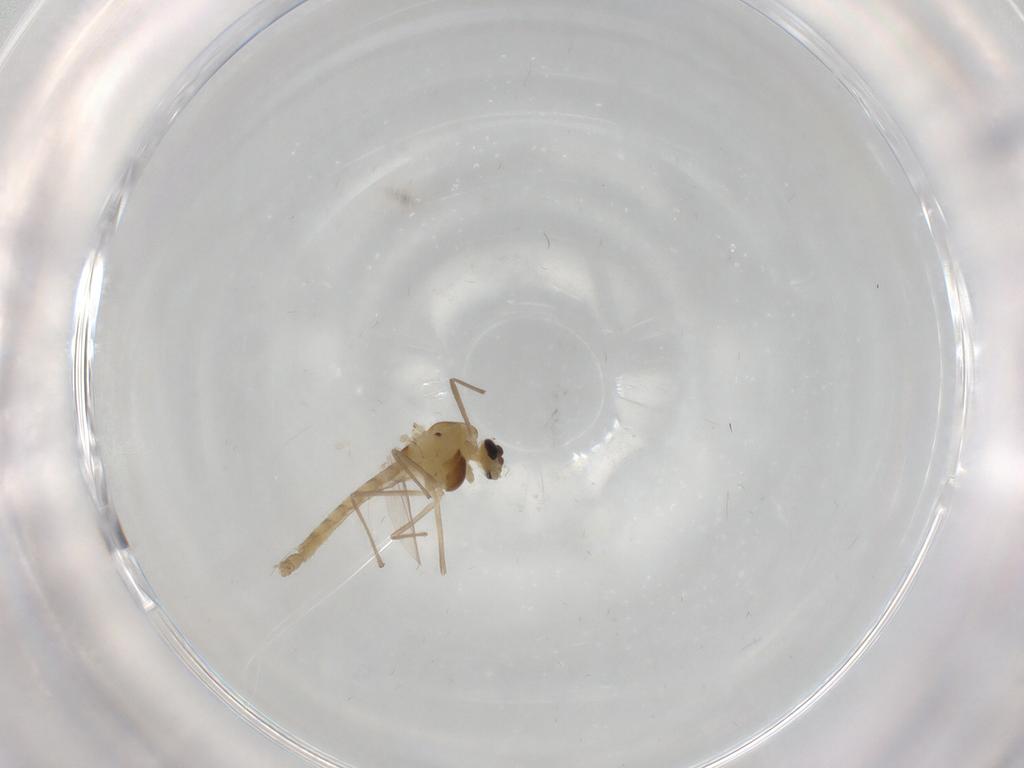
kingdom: Animalia
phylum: Arthropoda
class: Insecta
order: Diptera
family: Chironomidae
